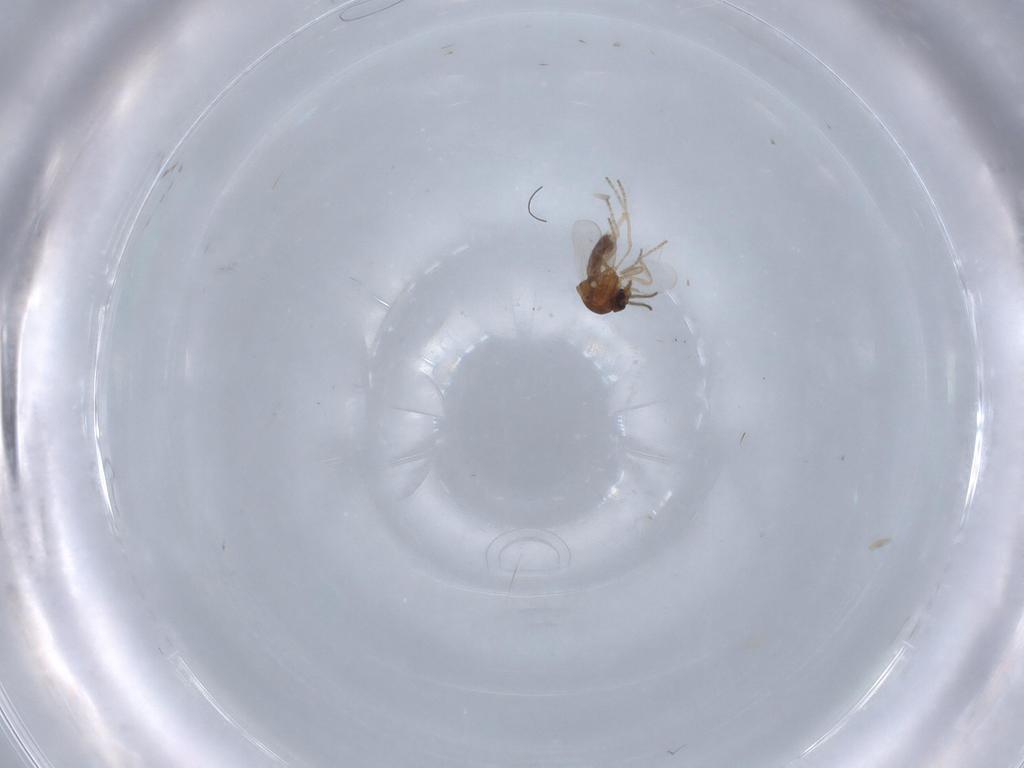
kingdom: Animalia
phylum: Arthropoda
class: Insecta
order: Diptera
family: Ceratopogonidae
